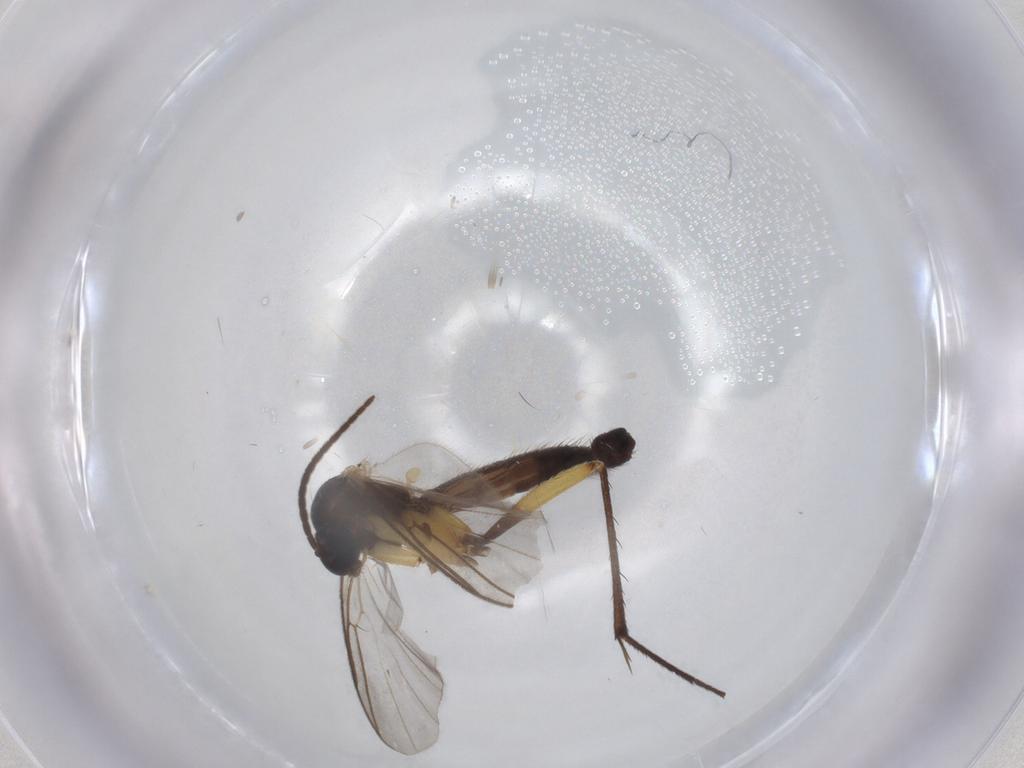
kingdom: Animalia
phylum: Arthropoda
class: Insecta
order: Diptera
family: Mycetophilidae
